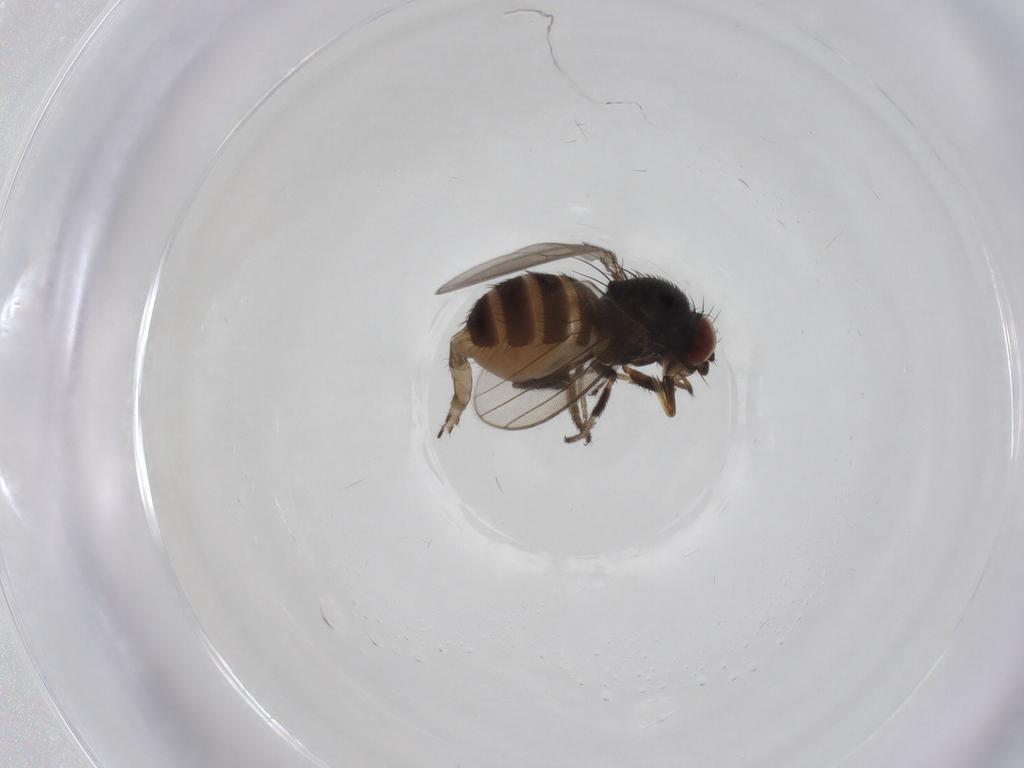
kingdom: Animalia
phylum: Arthropoda
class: Insecta
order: Diptera
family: Milichiidae
